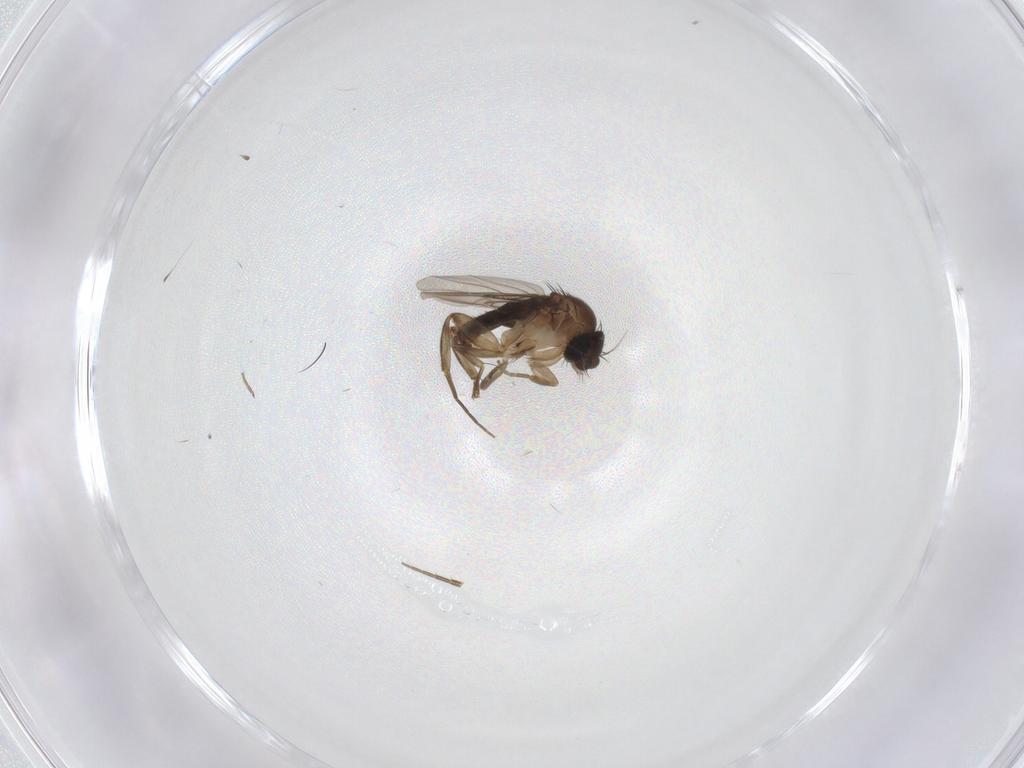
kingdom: Animalia
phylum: Arthropoda
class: Insecta
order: Diptera
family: Phoridae
